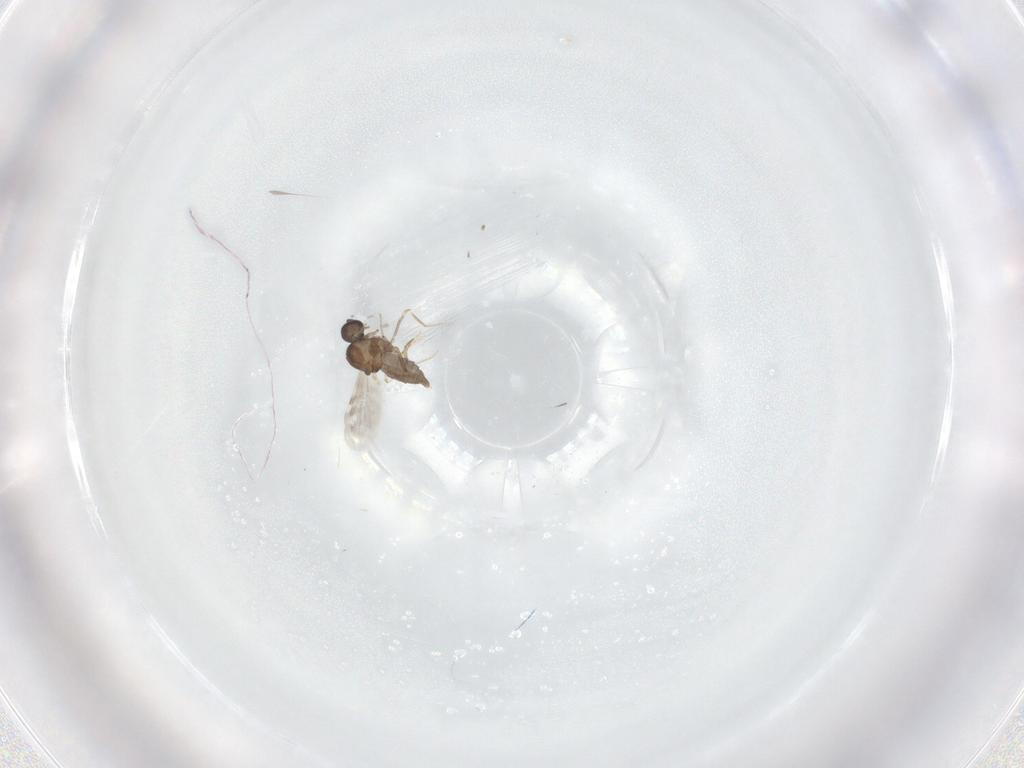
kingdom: Animalia
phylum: Arthropoda
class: Insecta
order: Diptera
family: Ceratopogonidae
